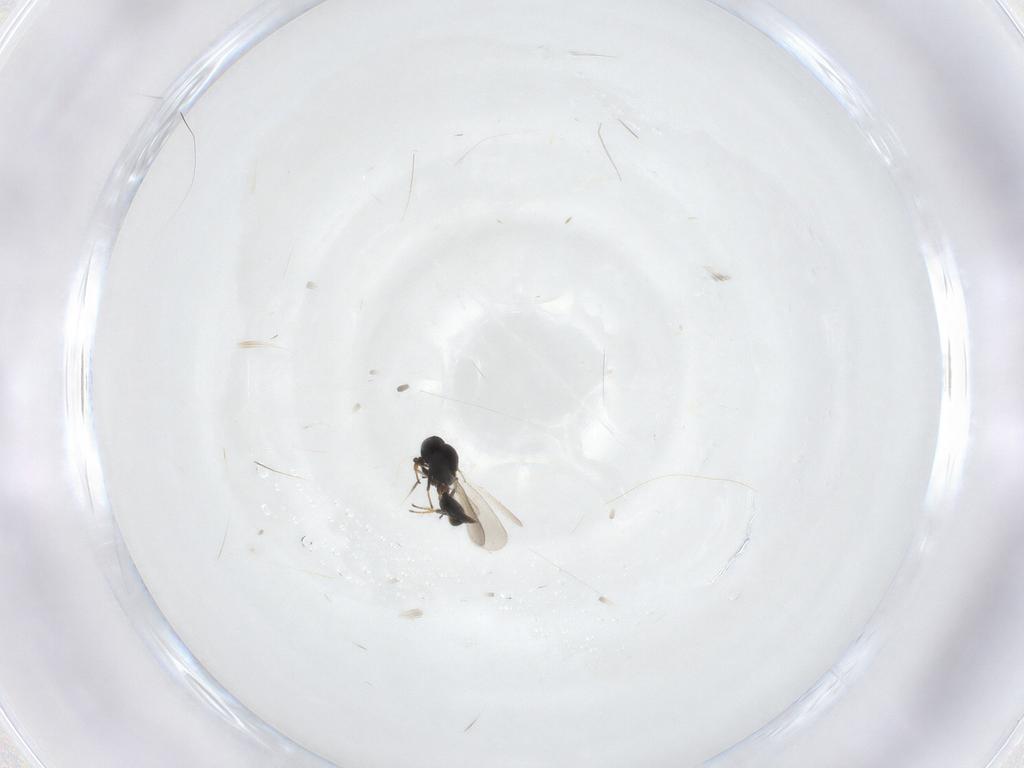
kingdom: Animalia
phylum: Arthropoda
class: Insecta
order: Hymenoptera
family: Platygastridae
